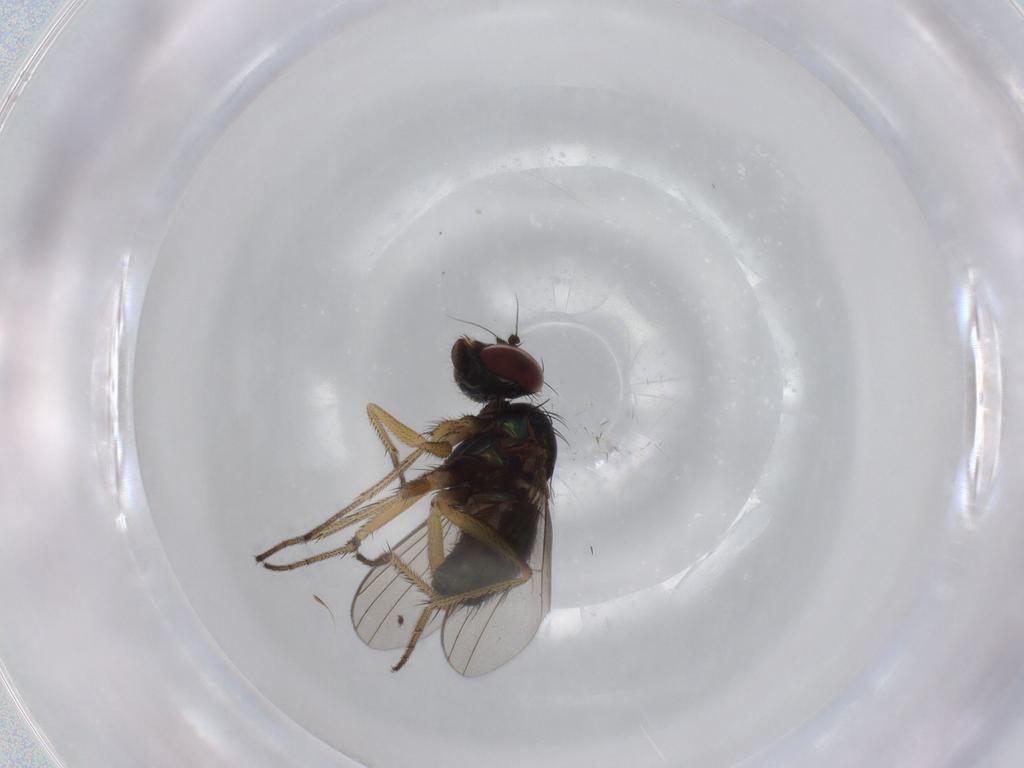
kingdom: Animalia
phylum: Arthropoda
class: Insecta
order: Diptera
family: Dolichopodidae
